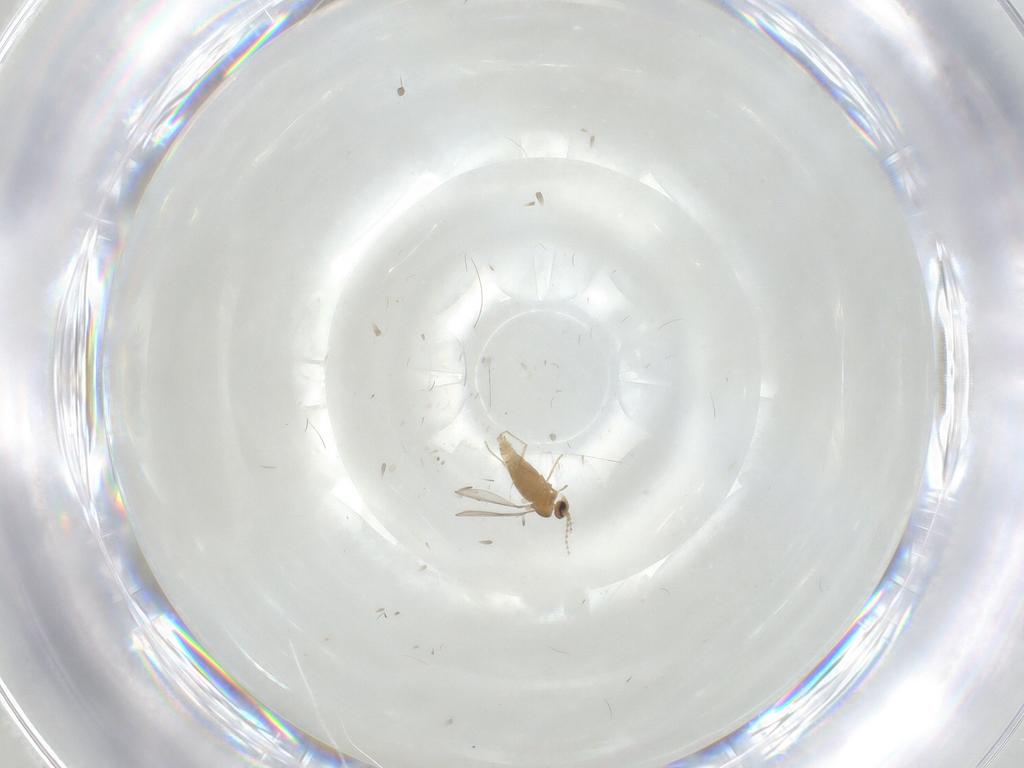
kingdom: Animalia
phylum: Arthropoda
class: Insecta
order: Diptera
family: Cecidomyiidae
